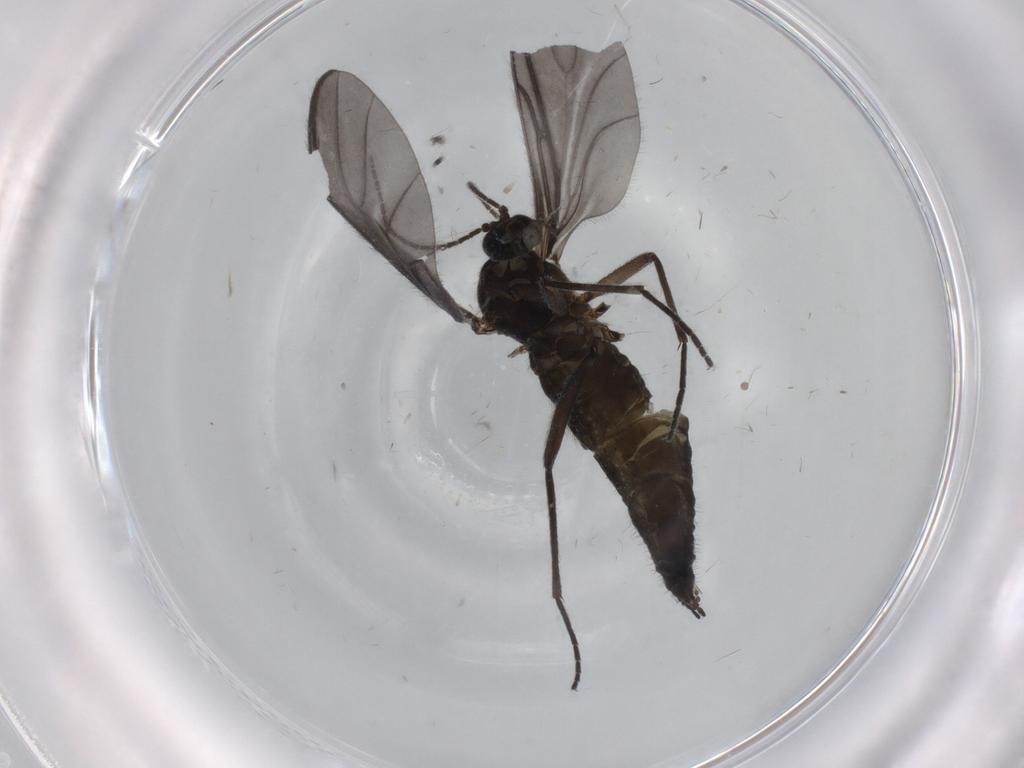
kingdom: Animalia
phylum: Arthropoda
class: Insecta
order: Diptera
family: Sciaridae
